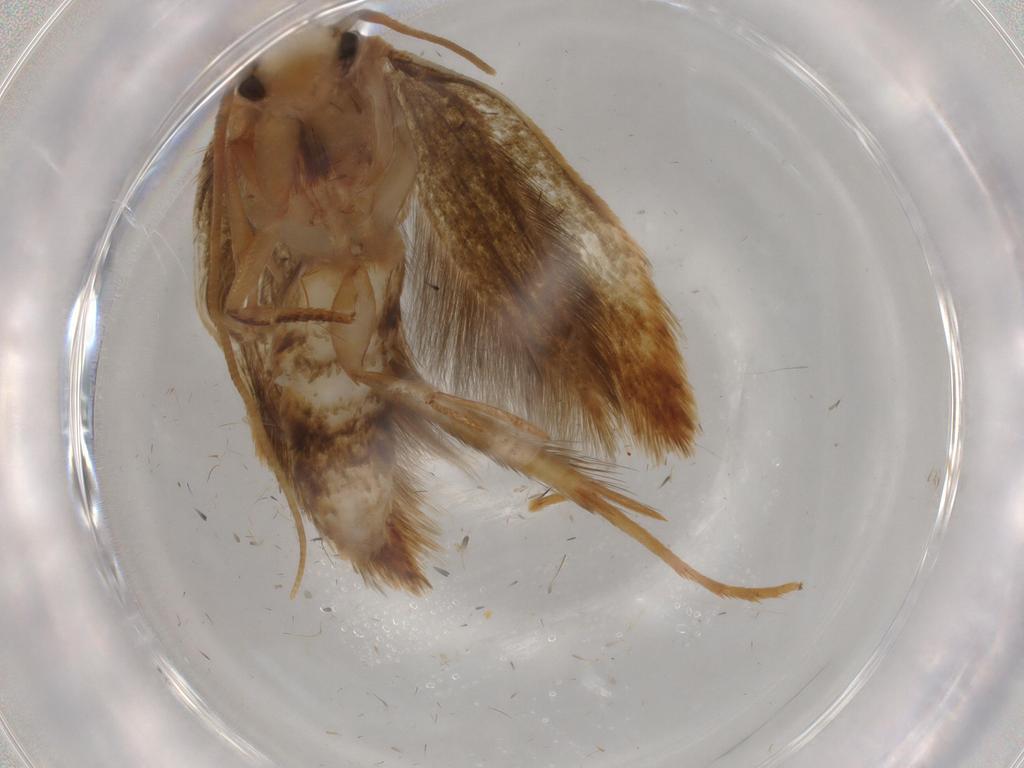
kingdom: Animalia
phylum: Arthropoda
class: Insecta
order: Lepidoptera
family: Tineidae
